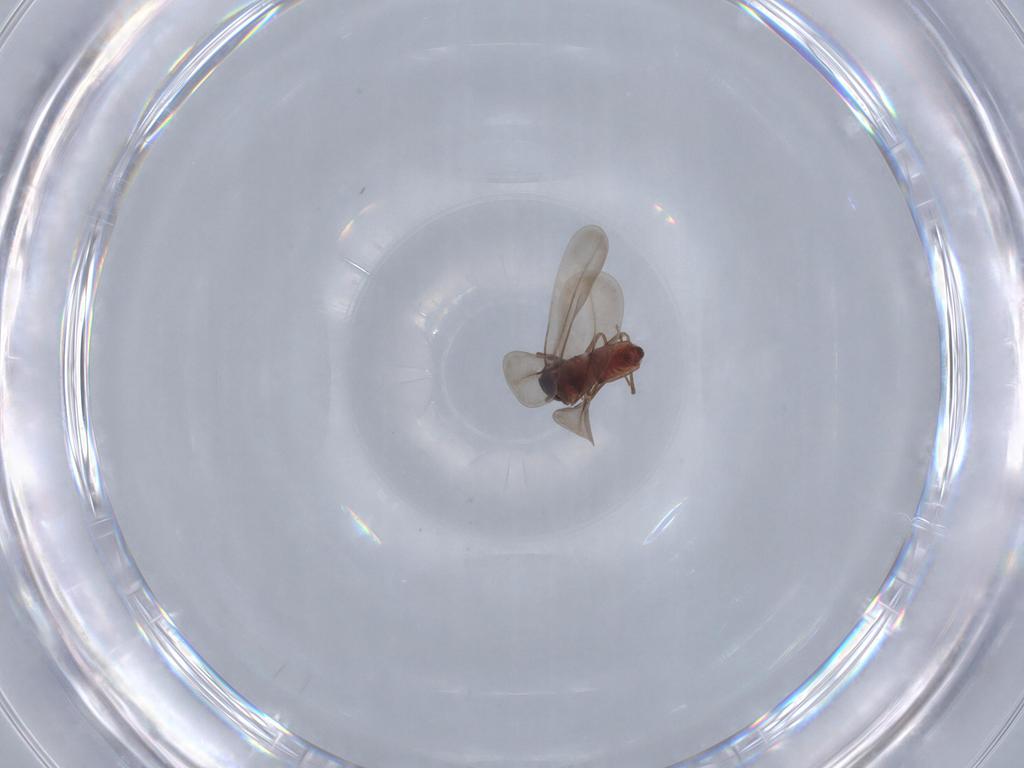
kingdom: Animalia
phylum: Arthropoda
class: Insecta
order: Hemiptera
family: Aleyrodidae
